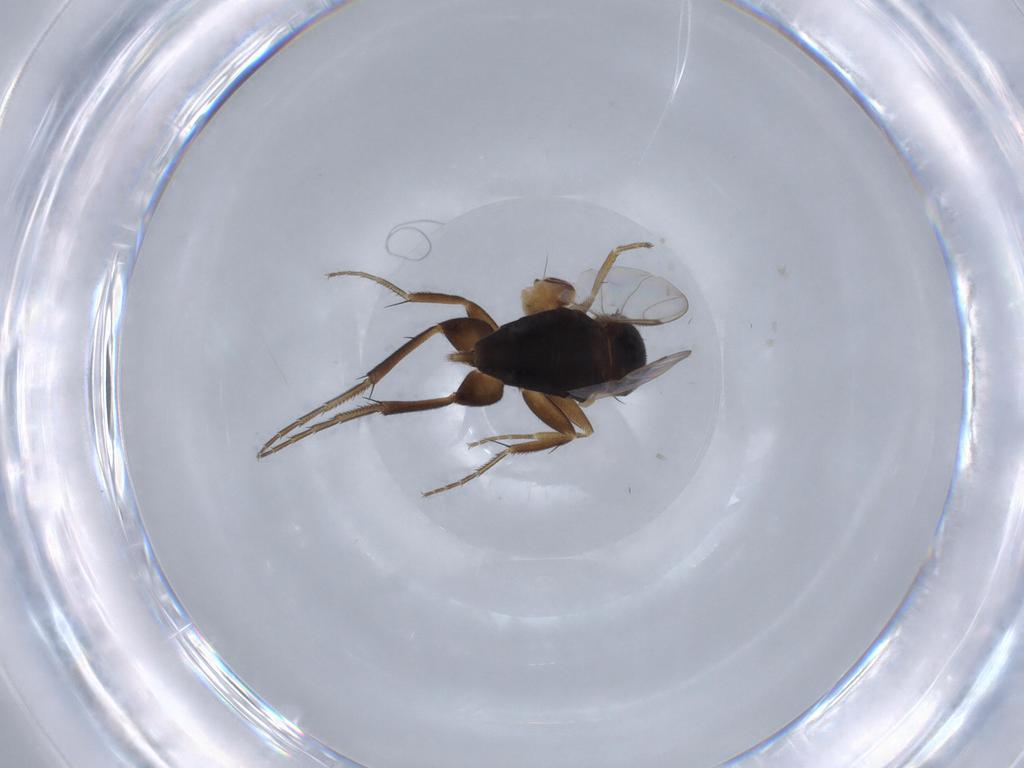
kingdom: Animalia
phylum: Arthropoda
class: Insecta
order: Diptera
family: Phoridae
